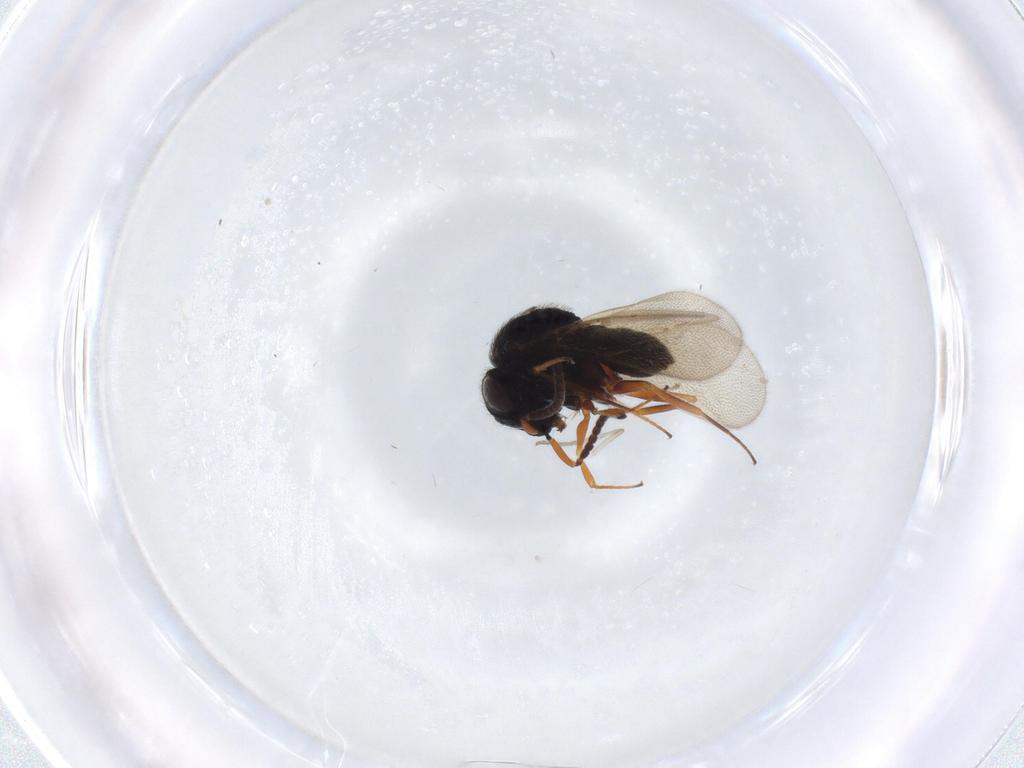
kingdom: Animalia
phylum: Arthropoda
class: Insecta
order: Hymenoptera
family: Scelionidae
